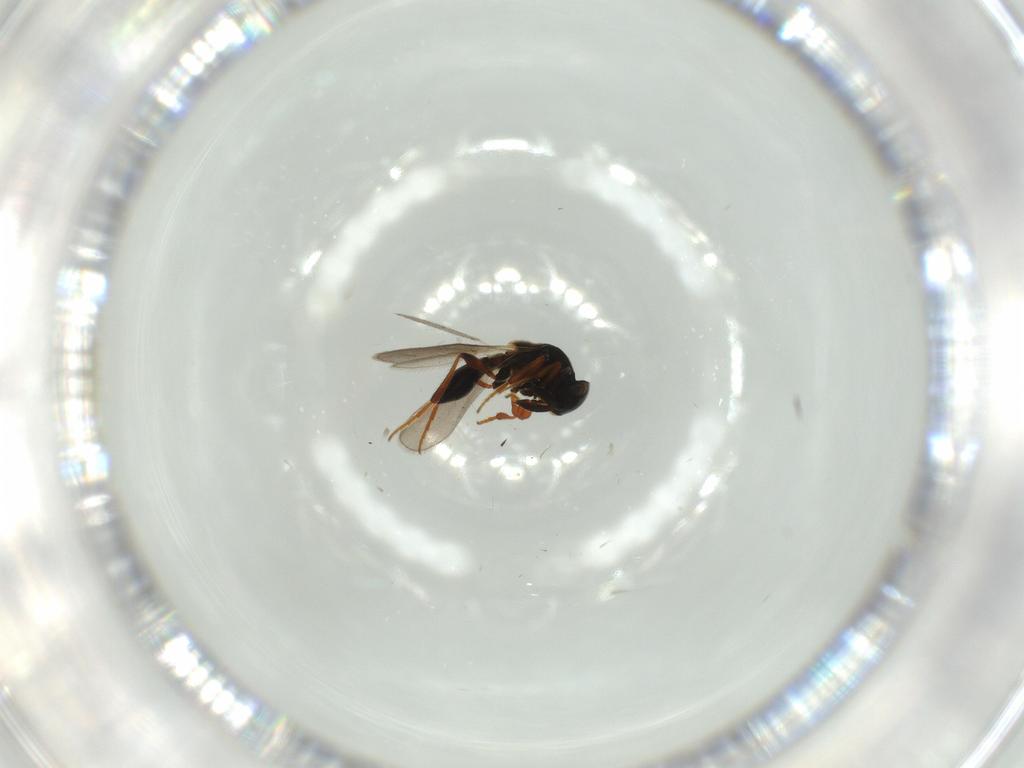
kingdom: Animalia
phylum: Arthropoda
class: Insecta
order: Hymenoptera
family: Platygastridae
